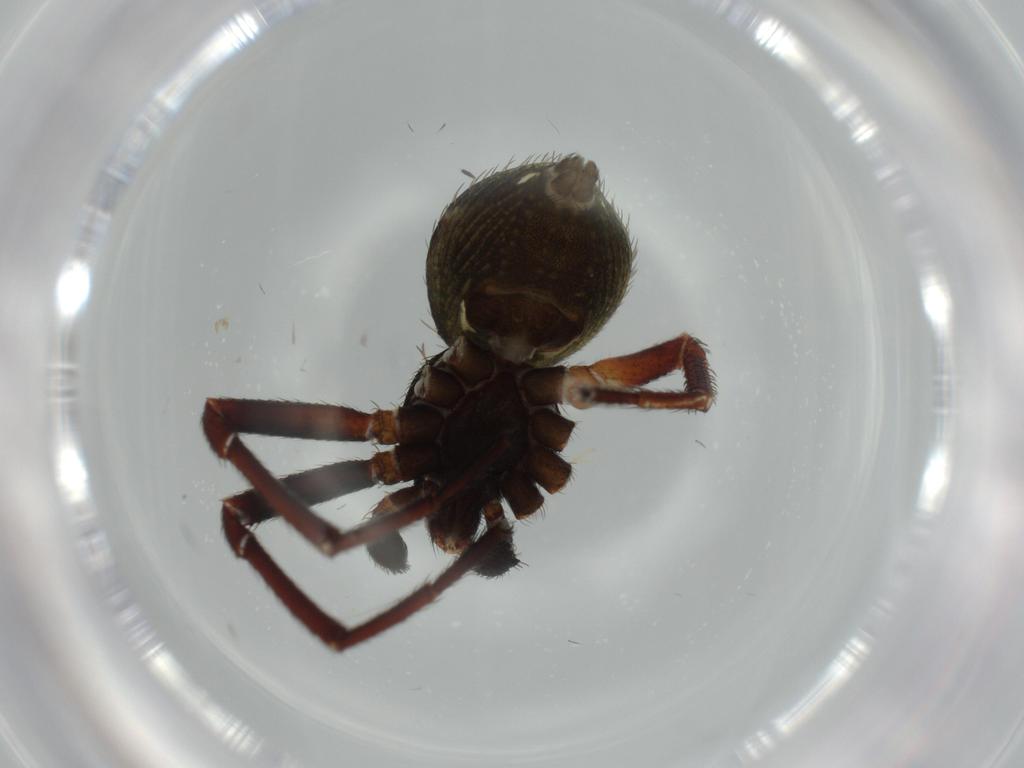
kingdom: Animalia
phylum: Arthropoda
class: Arachnida
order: Araneae
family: Thomisidae
